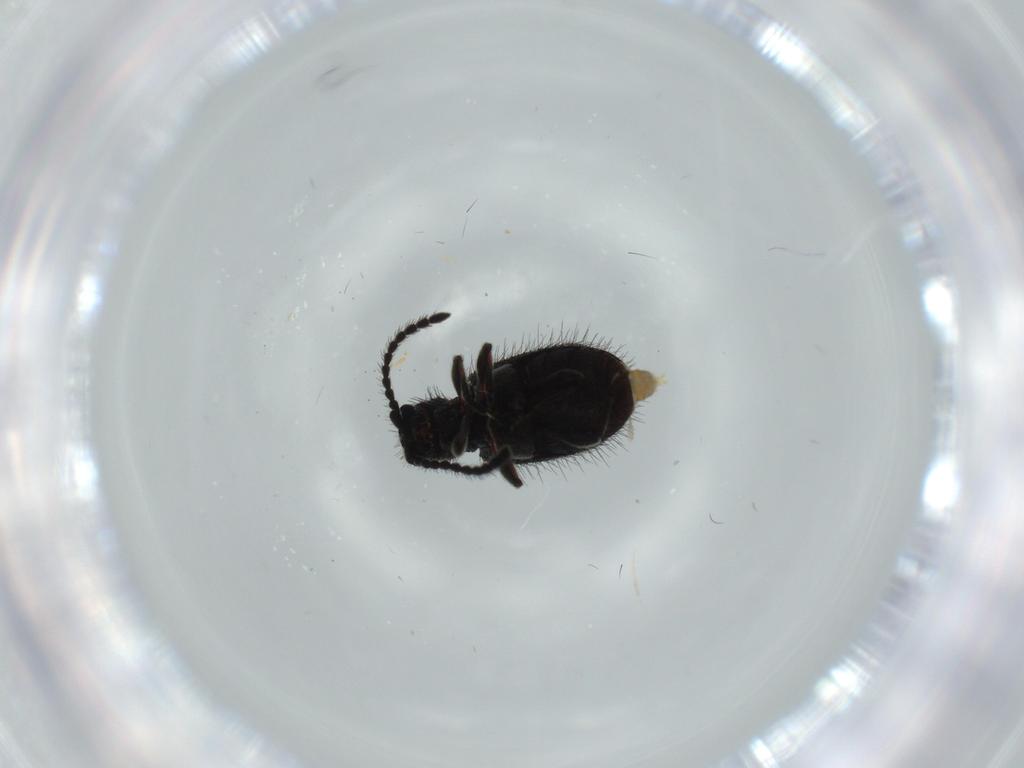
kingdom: Animalia
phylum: Arthropoda
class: Insecta
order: Coleoptera
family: Ptinidae
